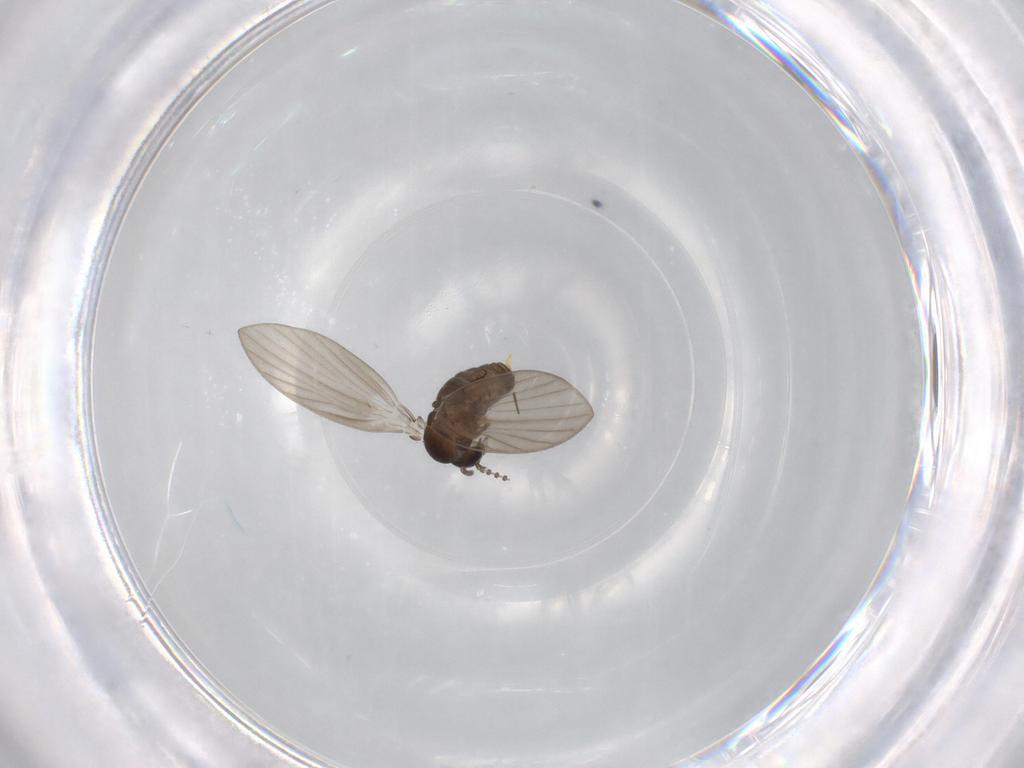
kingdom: Animalia
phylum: Arthropoda
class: Insecta
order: Diptera
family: Psychodidae
